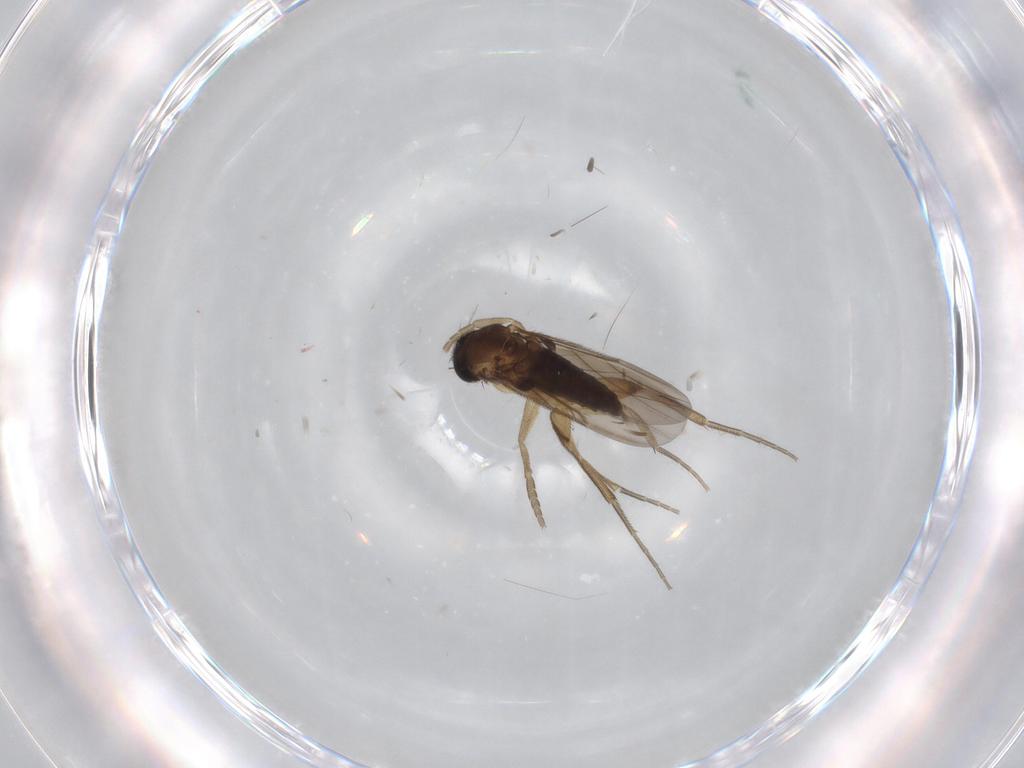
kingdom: Animalia
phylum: Arthropoda
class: Insecta
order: Diptera
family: Phoridae
